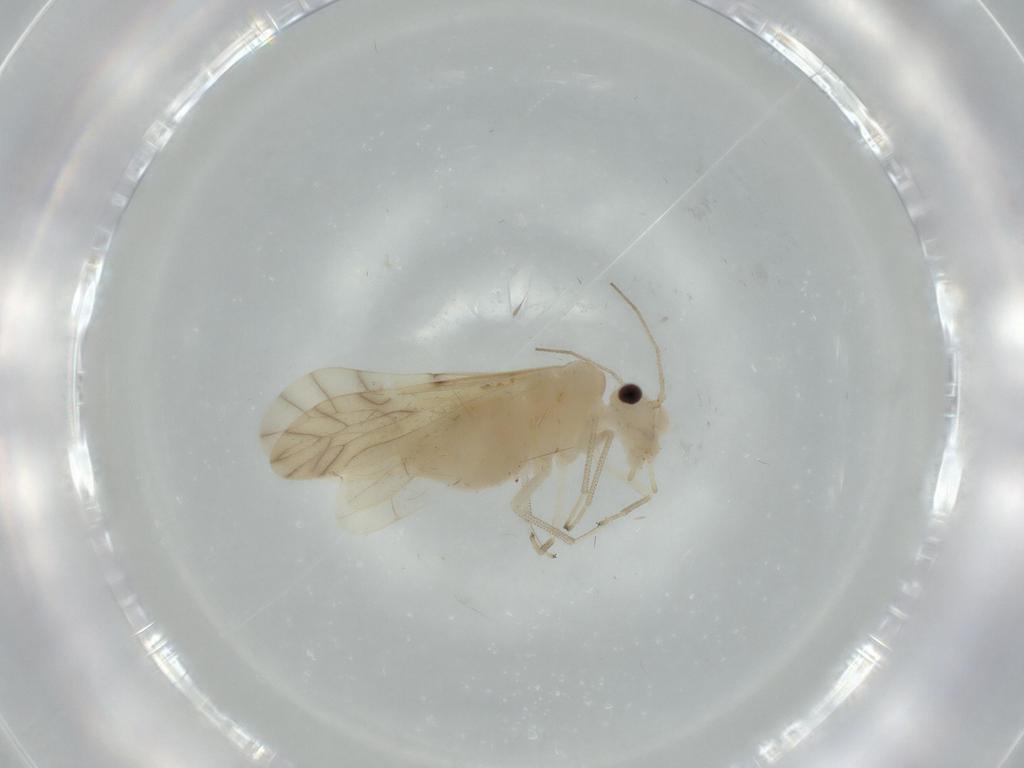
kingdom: Animalia
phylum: Arthropoda
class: Insecta
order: Psocodea
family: Caeciliusidae
